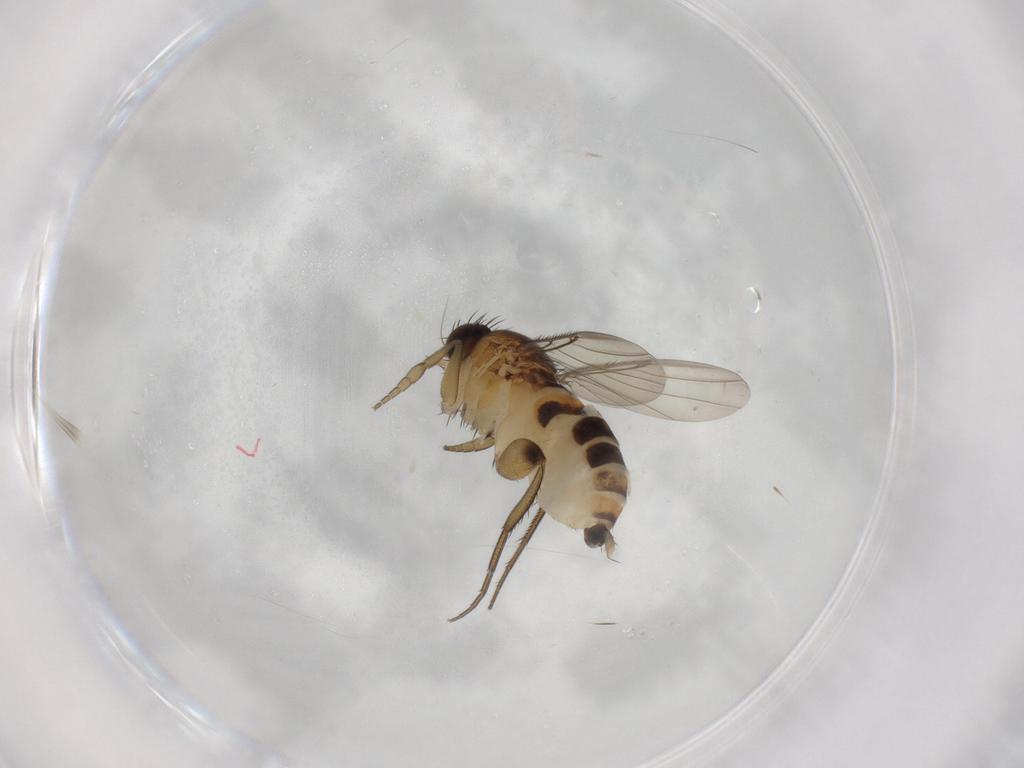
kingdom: Animalia
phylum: Arthropoda
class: Insecta
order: Diptera
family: Phoridae
